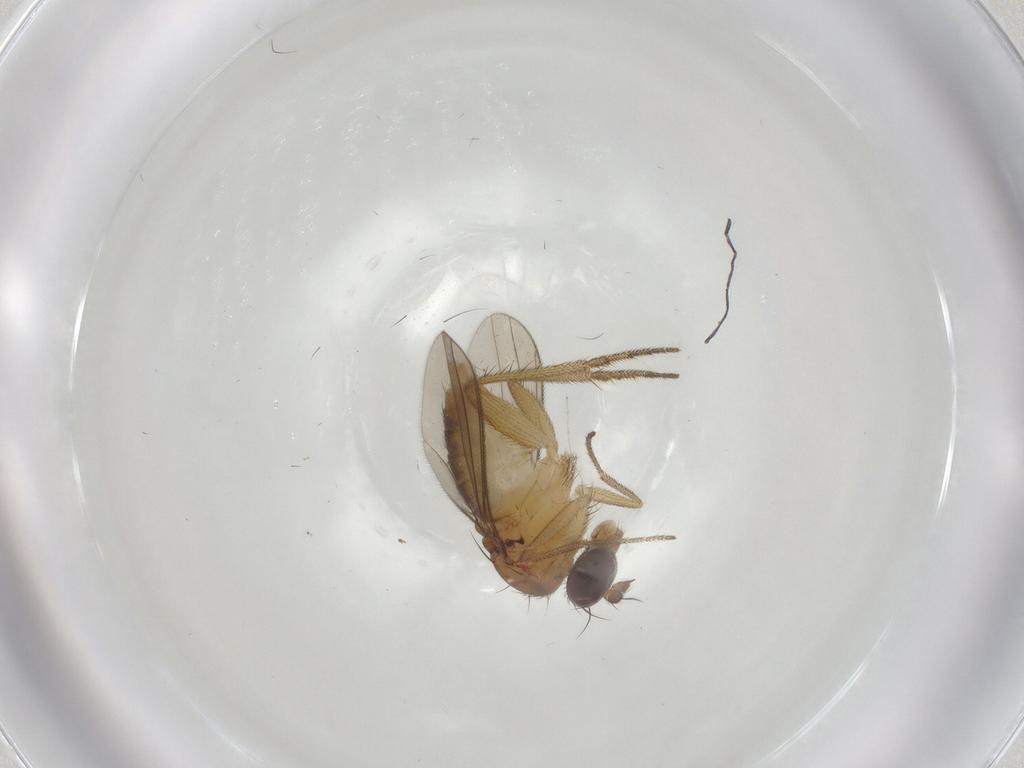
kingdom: Animalia
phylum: Arthropoda
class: Insecta
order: Diptera
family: Dolichopodidae
